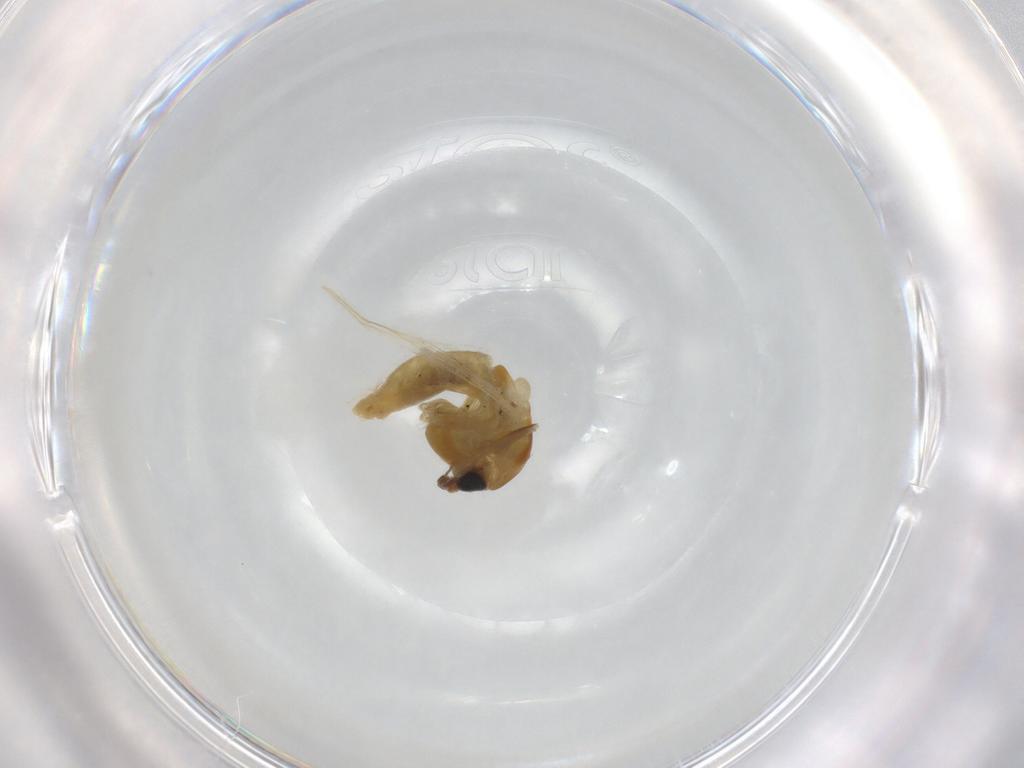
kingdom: Animalia
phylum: Arthropoda
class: Insecta
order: Diptera
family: Chironomidae
